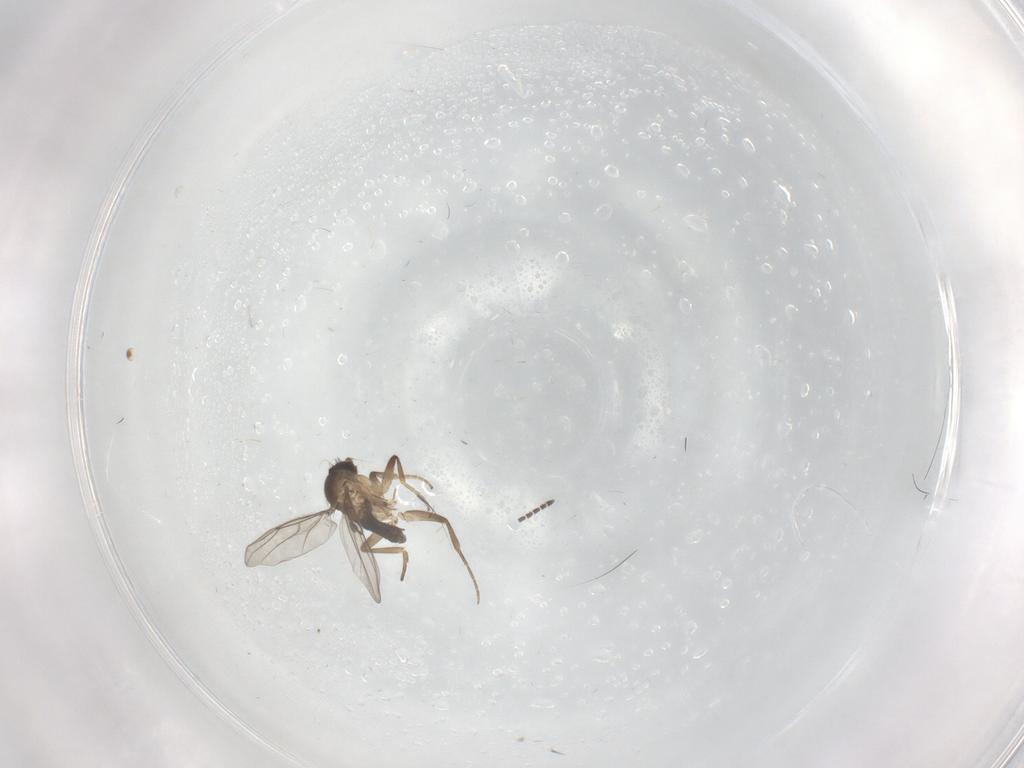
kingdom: Animalia
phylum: Arthropoda
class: Insecta
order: Diptera
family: Sciaridae
